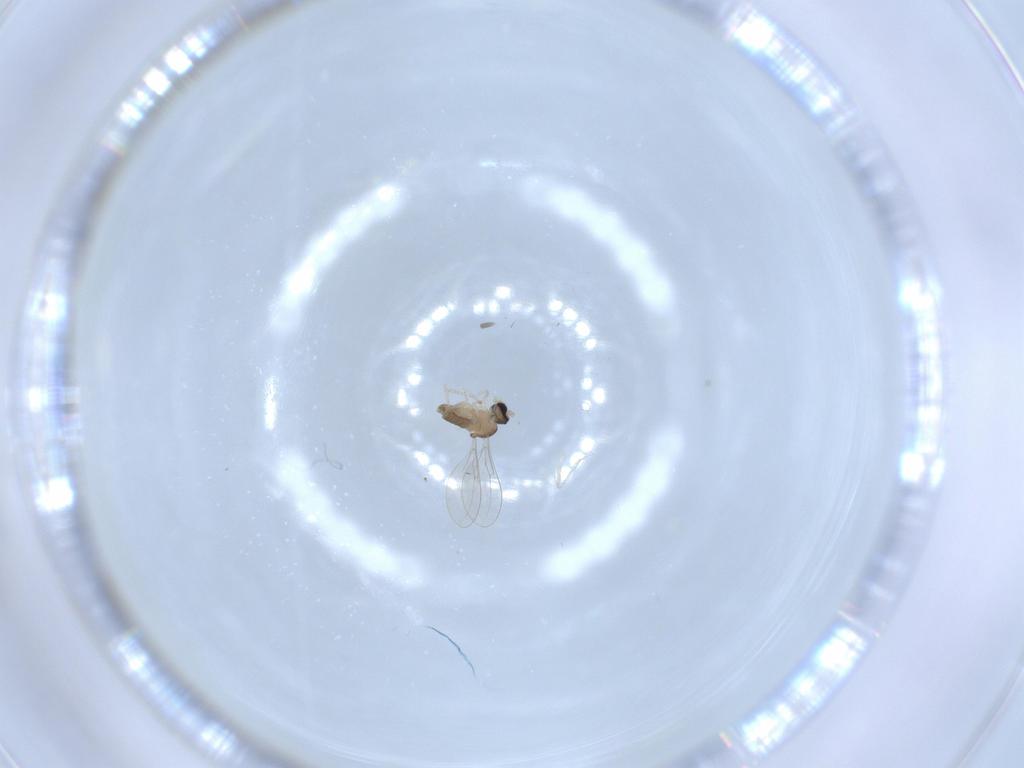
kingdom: Animalia
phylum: Arthropoda
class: Insecta
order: Diptera
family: Cecidomyiidae
